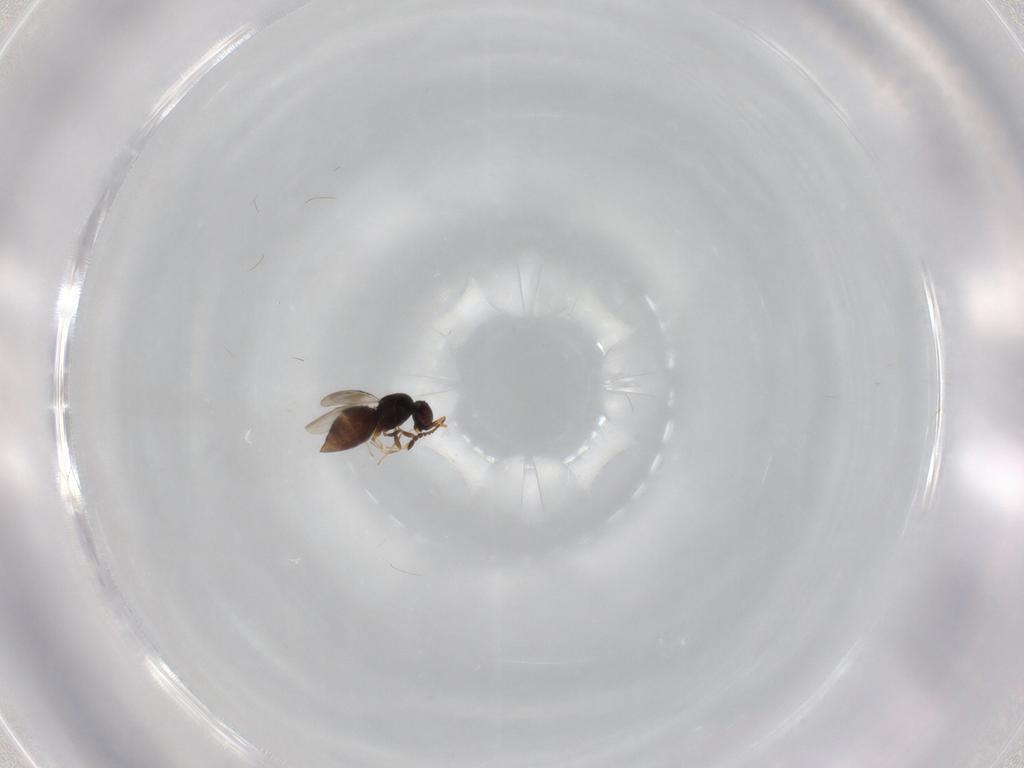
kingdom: Animalia
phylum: Arthropoda
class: Insecta
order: Hymenoptera
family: Ceraphronidae
